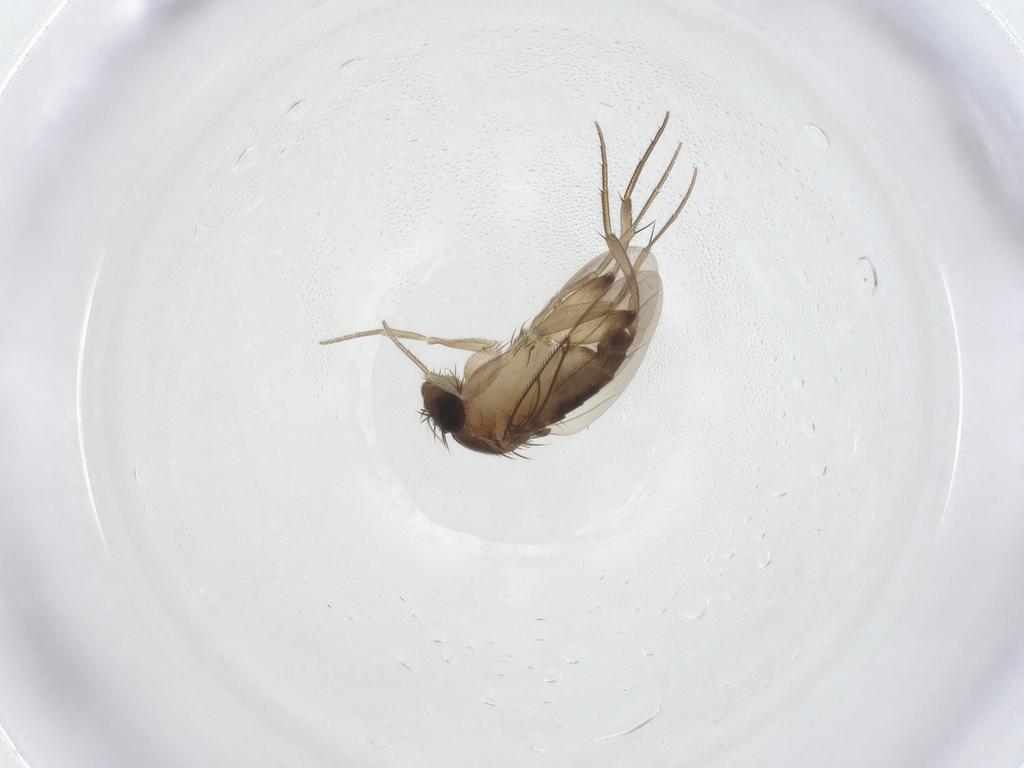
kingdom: Animalia
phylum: Arthropoda
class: Insecta
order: Diptera
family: Phoridae
